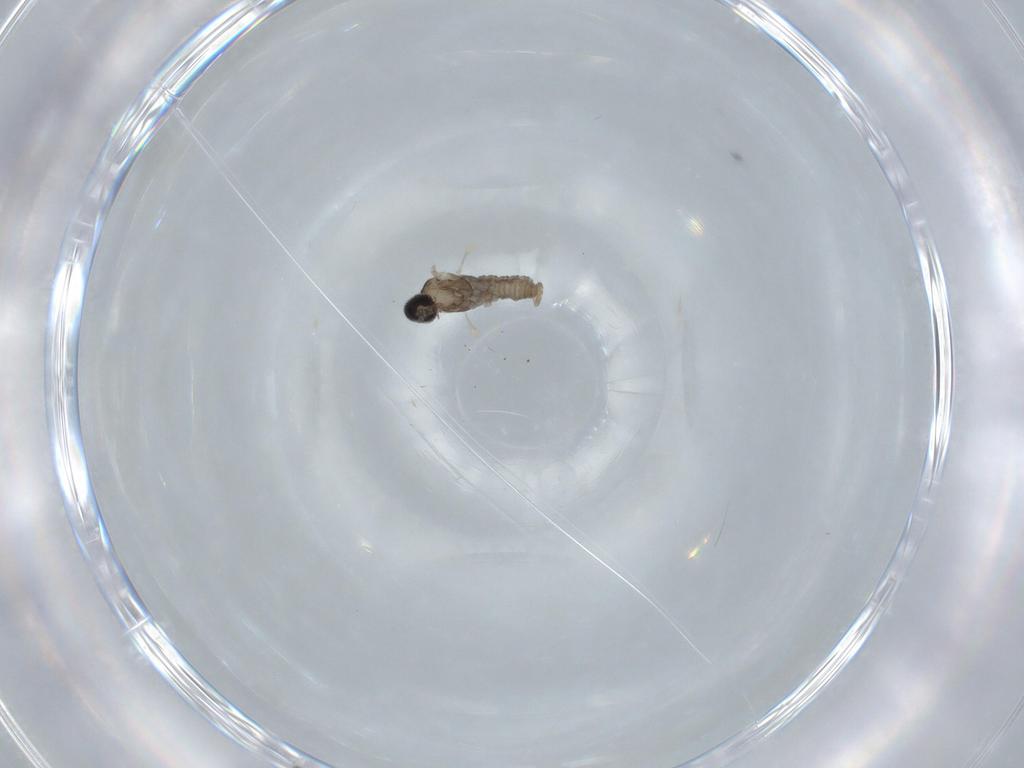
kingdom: Animalia
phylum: Arthropoda
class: Insecta
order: Diptera
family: Cecidomyiidae
